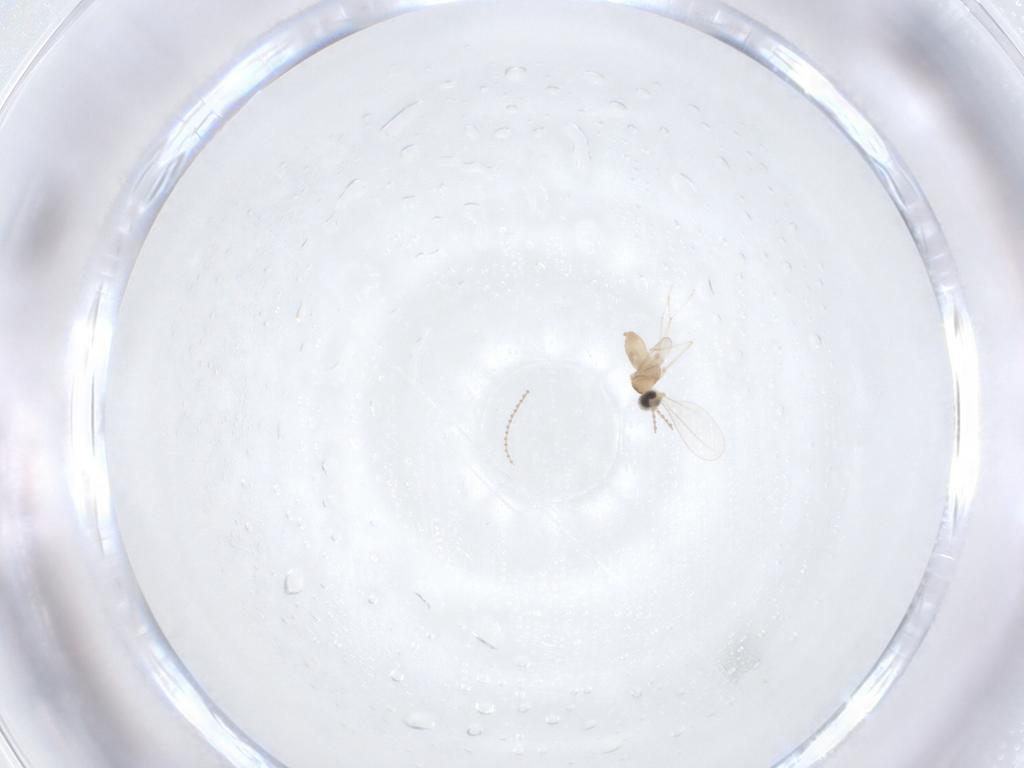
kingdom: Animalia
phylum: Arthropoda
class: Insecta
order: Diptera
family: Cecidomyiidae
